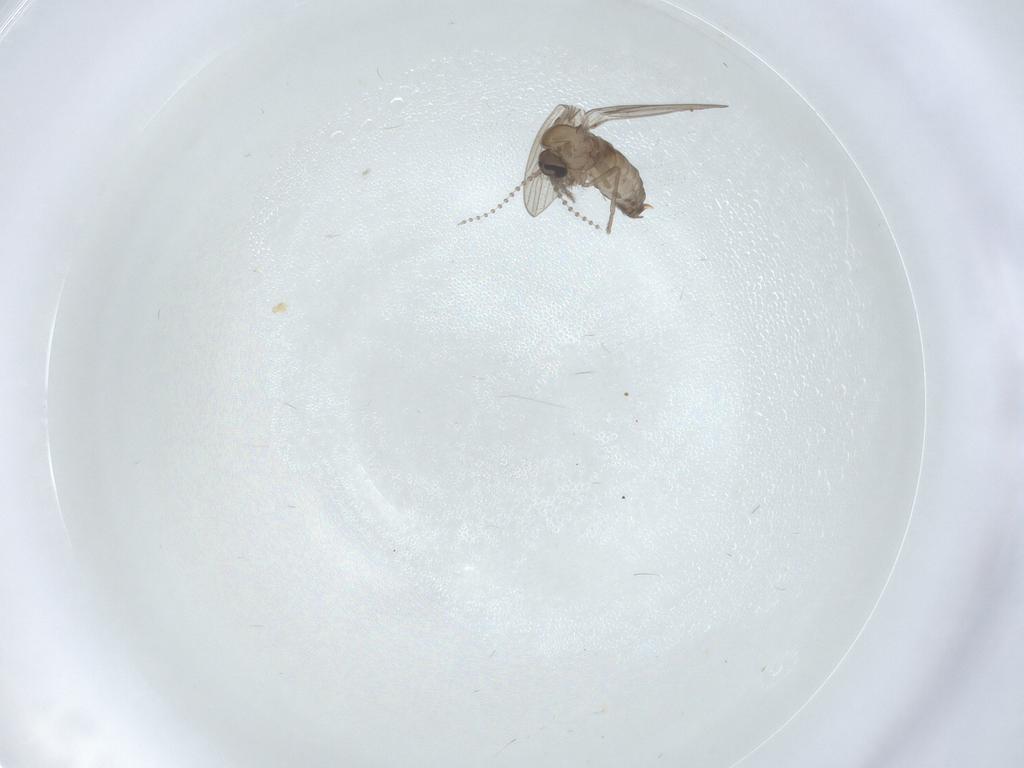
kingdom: Animalia
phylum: Arthropoda
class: Insecta
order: Diptera
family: Psychodidae
